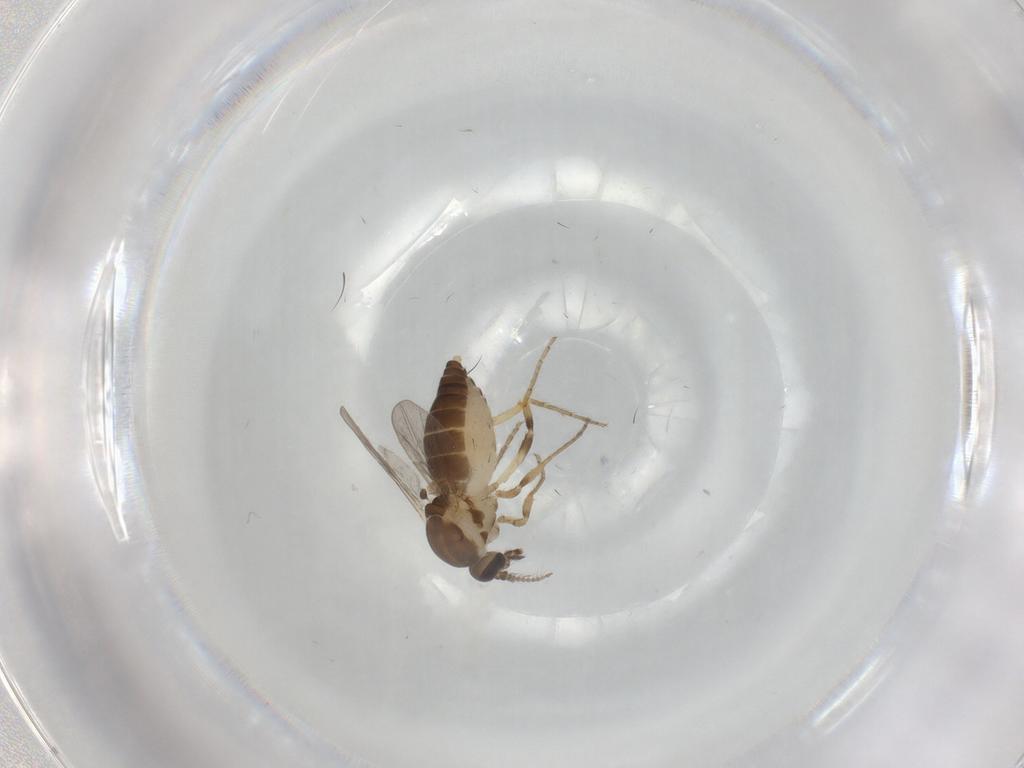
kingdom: Animalia
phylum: Arthropoda
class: Insecta
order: Diptera
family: Ceratopogonidae
